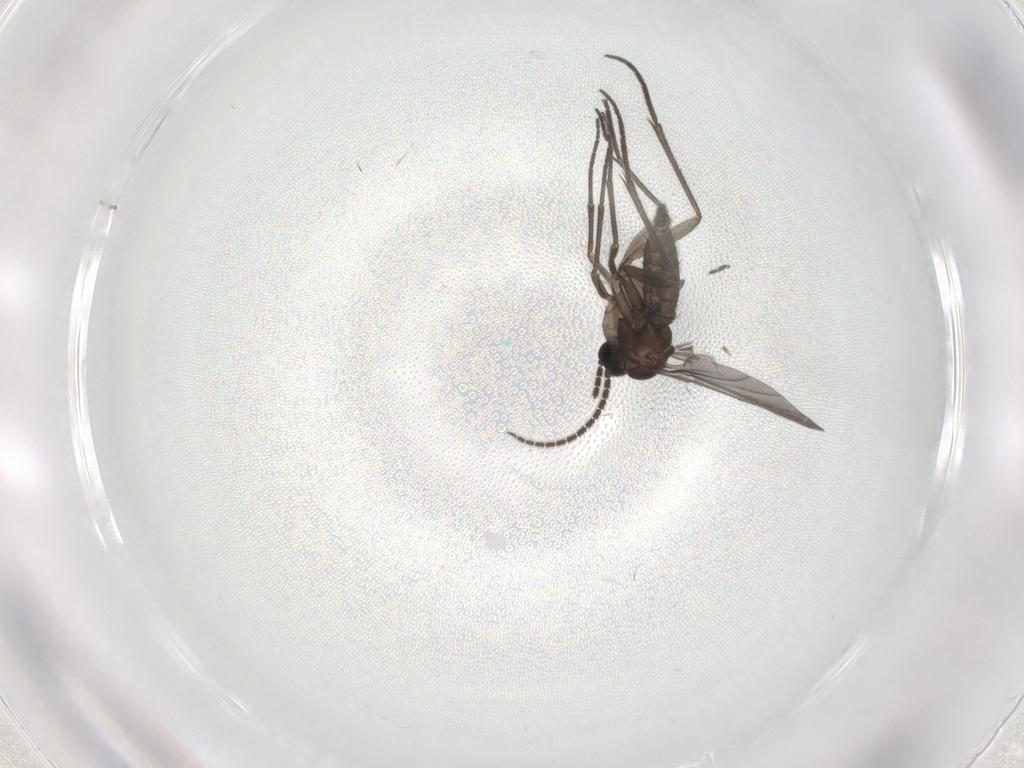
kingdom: Animalia
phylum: Arthropoda
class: Insecta
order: Diptera
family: Sciaridae
